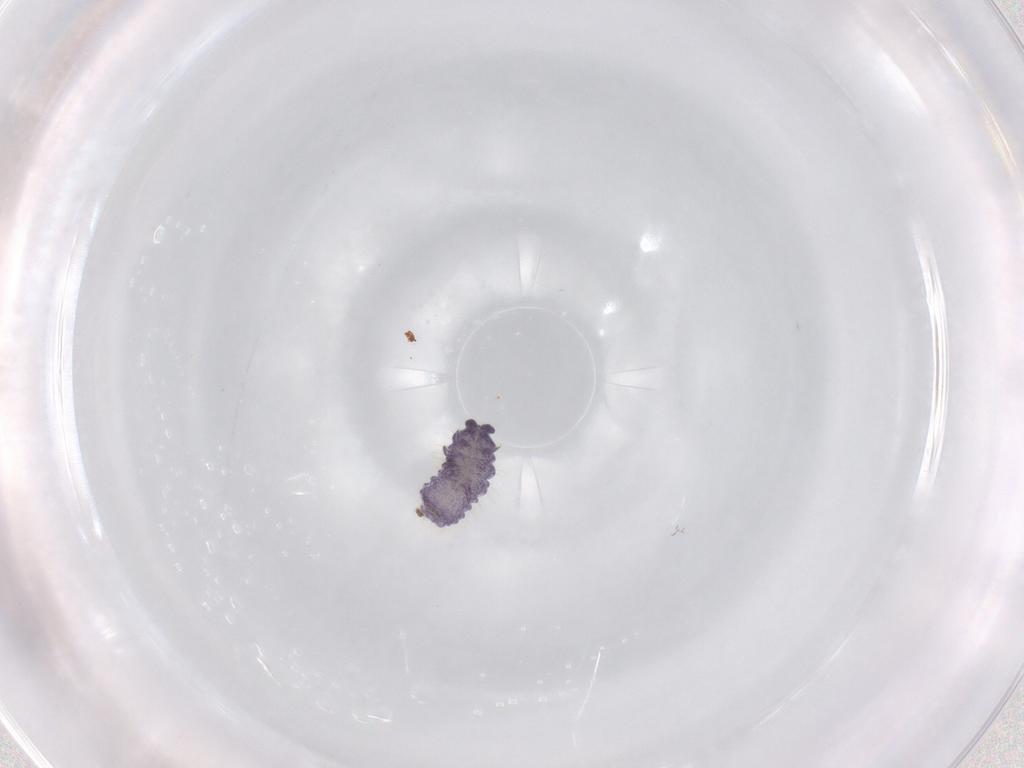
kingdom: Animalia
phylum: Arthropoda
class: Collembola
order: Poduromorpha
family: Neanuridae
